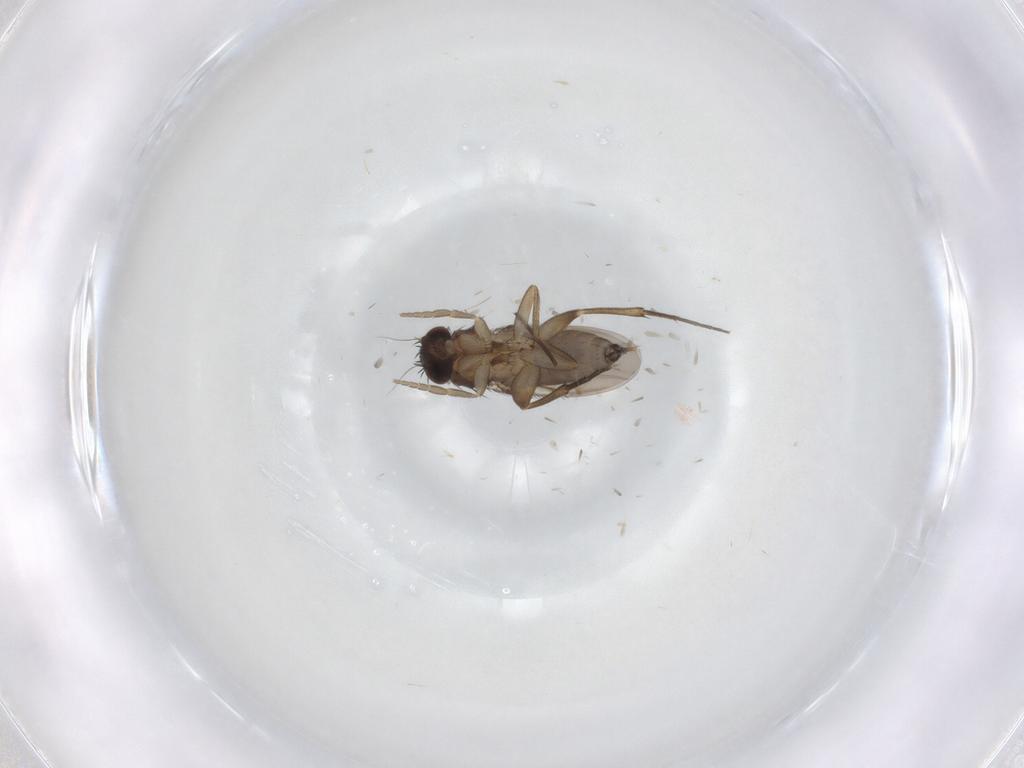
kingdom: Animalia
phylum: Arthropoda
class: Insecta
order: Diptera
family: Phoridae
